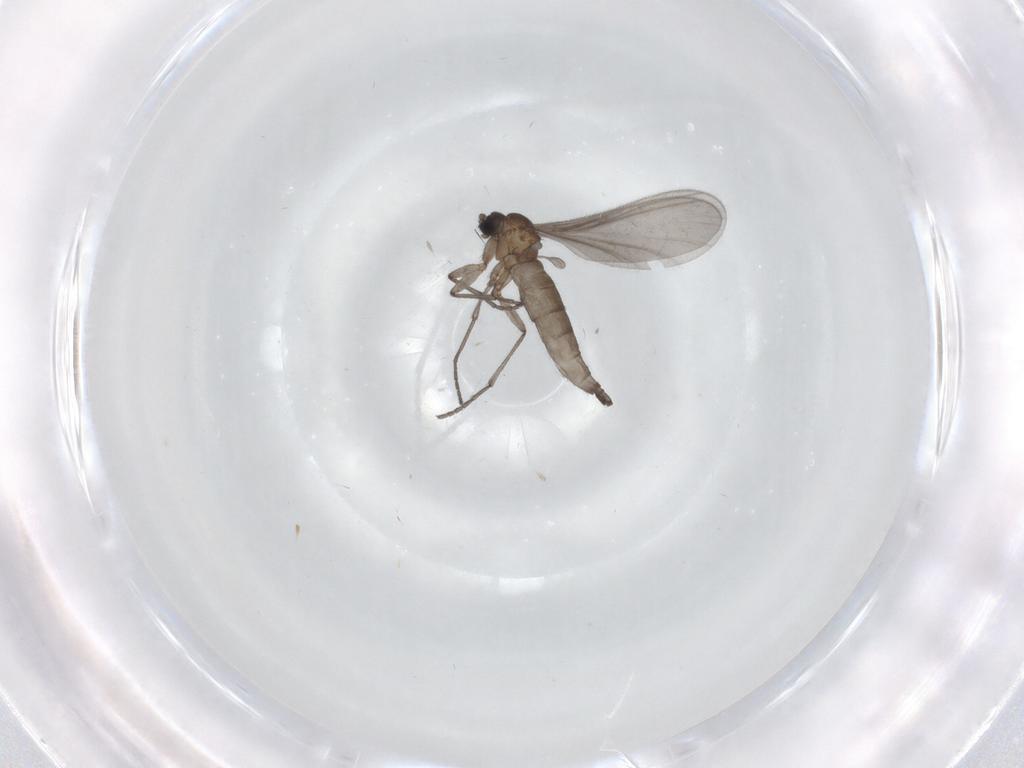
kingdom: Animalia
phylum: Arthropoda
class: Insecta
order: Diptera
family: Sciaridae
